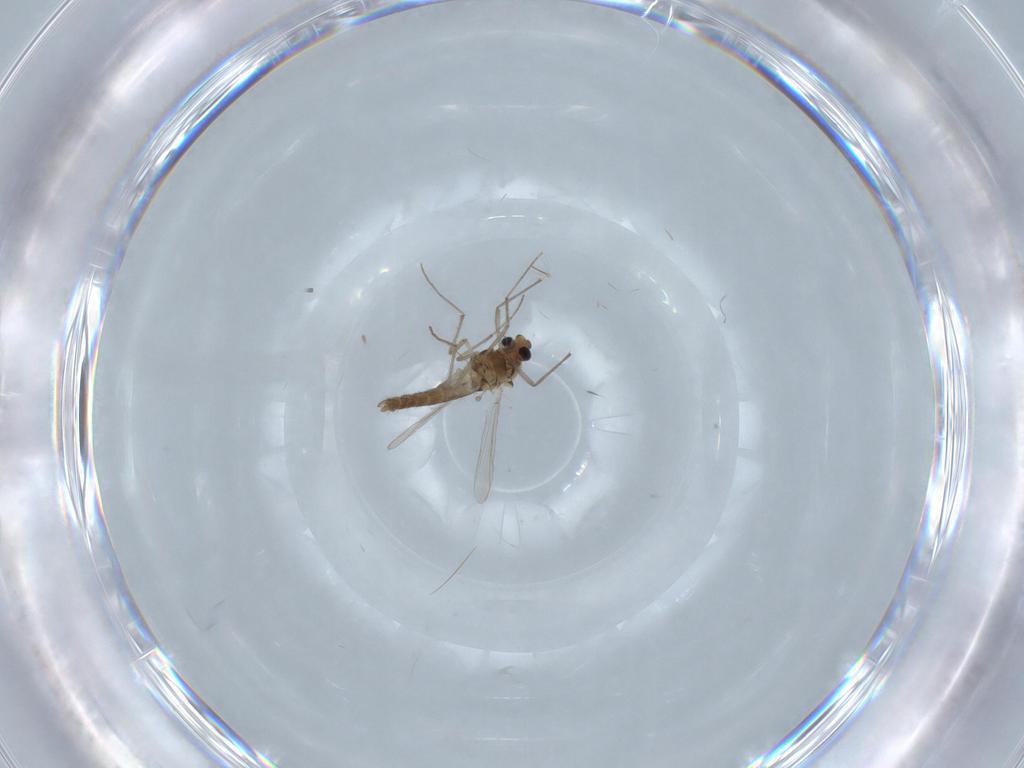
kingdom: Animalia
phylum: Arthropoda
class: Insecta
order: Diptera
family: Chironomidae
